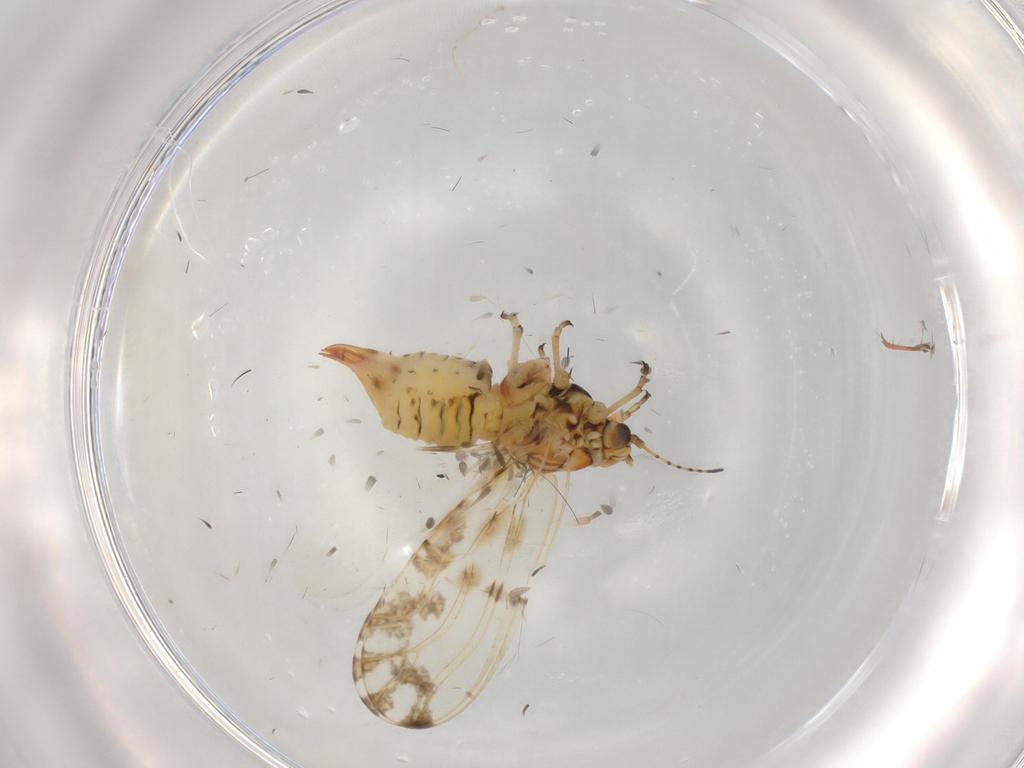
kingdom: Animalia
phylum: Arthropoda
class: Insecta
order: Hemiptera
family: Psylloidea_incertae_sedis
